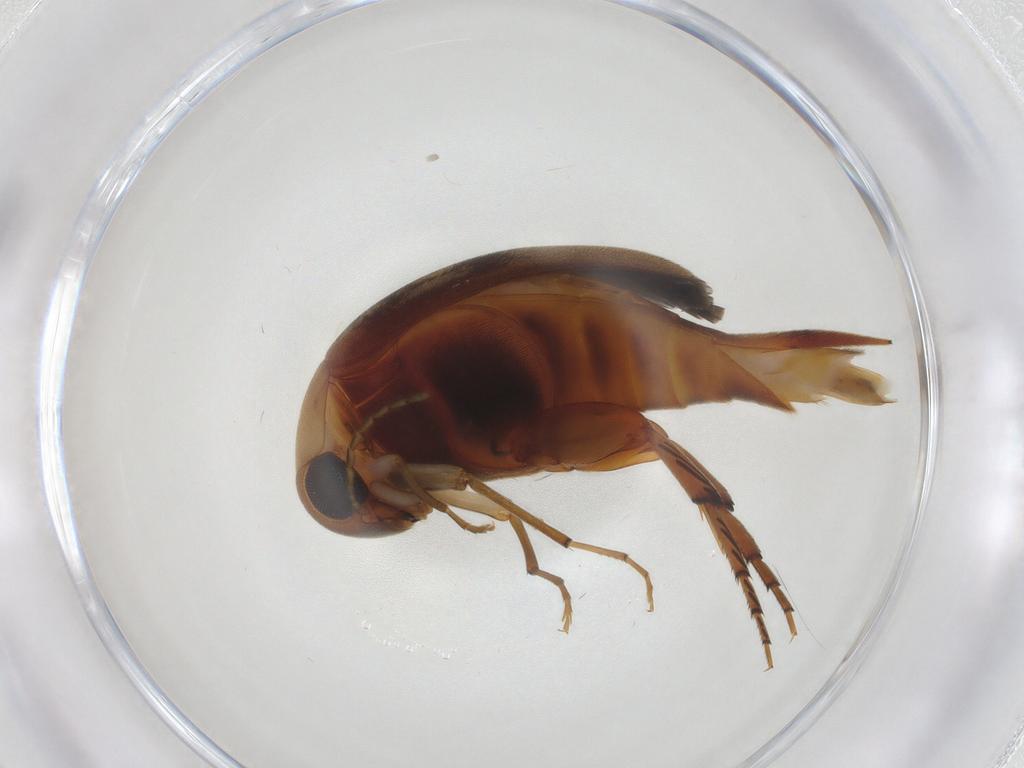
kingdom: Animalia
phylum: Arthropoda
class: Insecta
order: Coleoptera
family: Mordellidae
